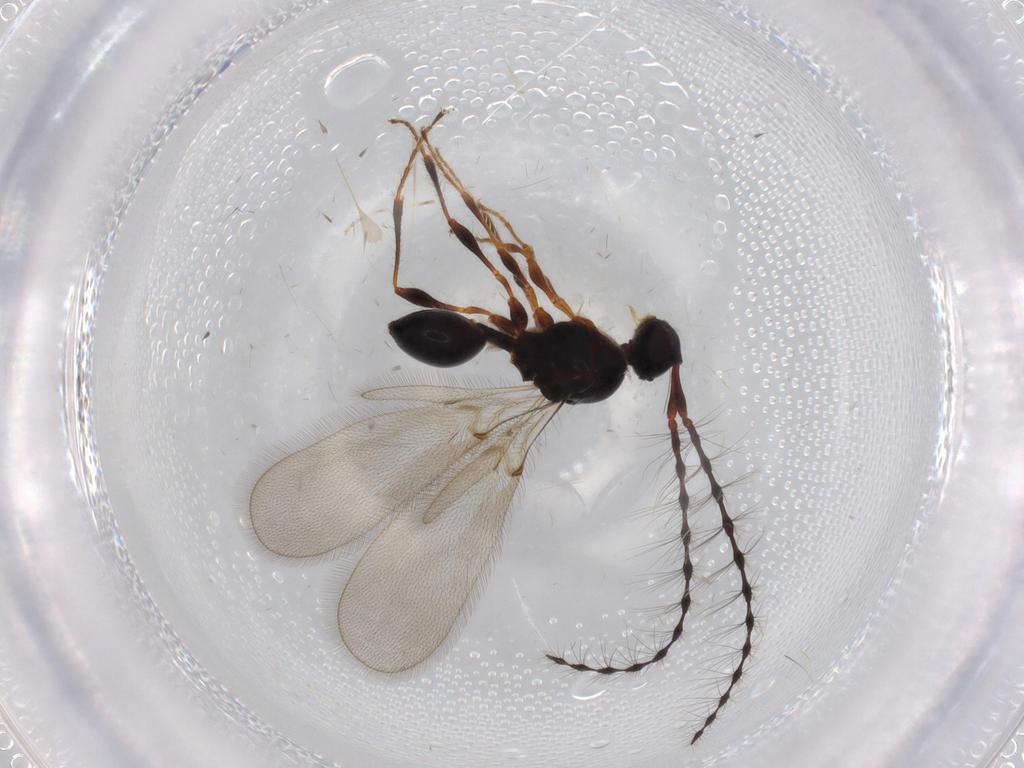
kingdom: Animalia
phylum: Arthropoda
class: Insecta
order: Hymenoptera
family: Diapriidae
